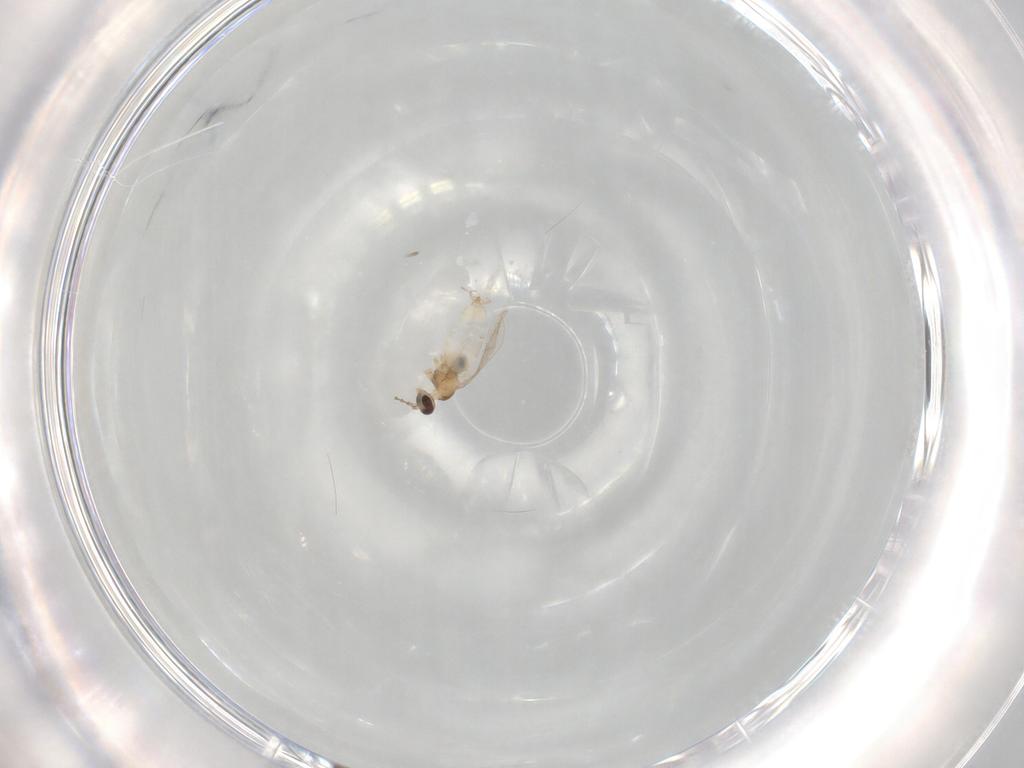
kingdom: Animalia
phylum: Arthropoda
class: Insecta
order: Diptera
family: Cecidomyiidae
